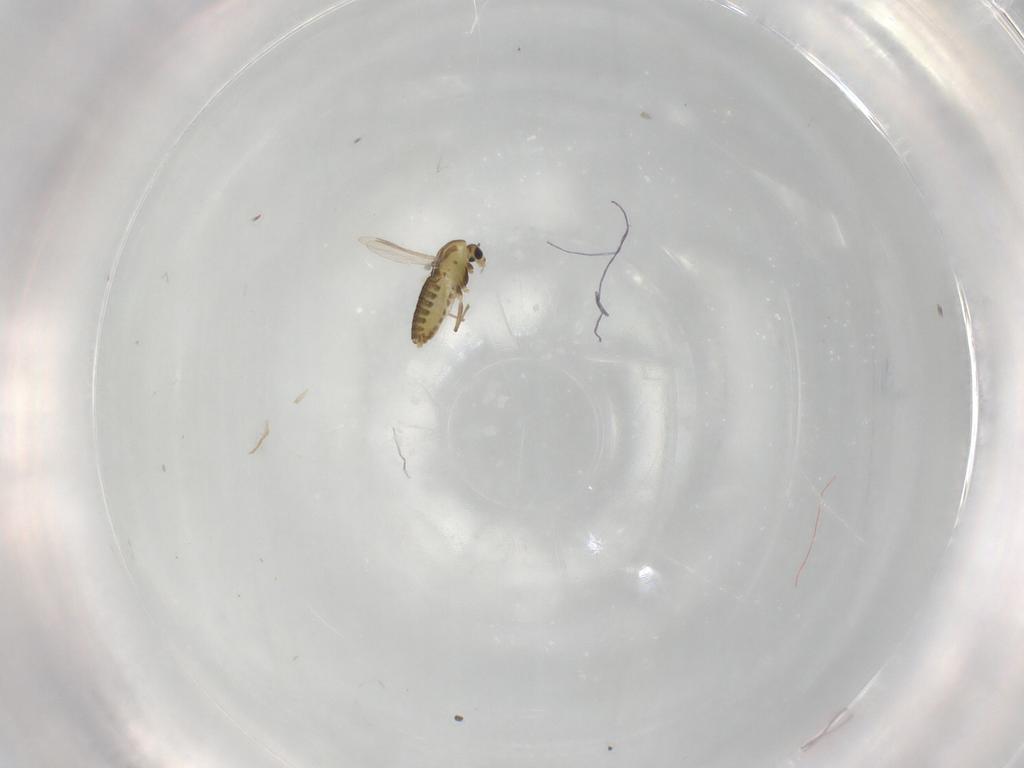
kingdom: Animalia
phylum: Arthropoda
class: Insecta
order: Diptera
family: Chironomidae
